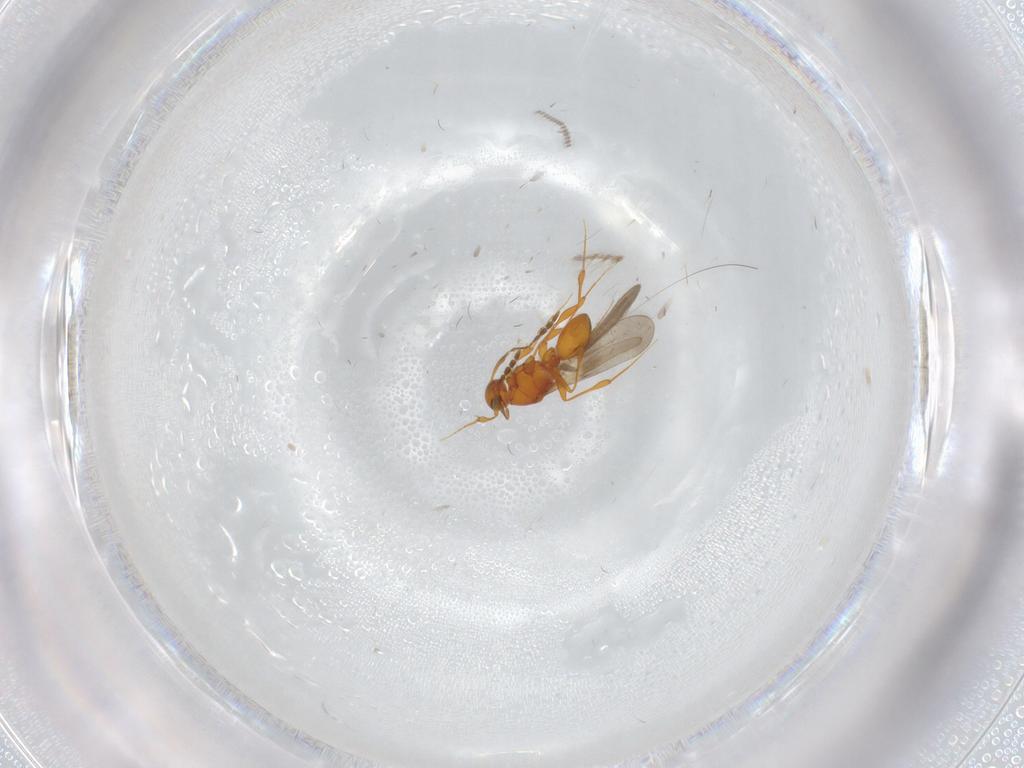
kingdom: Animalia
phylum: Arthropoda
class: Insecta
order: Hymenoptera
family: Platygastridae
